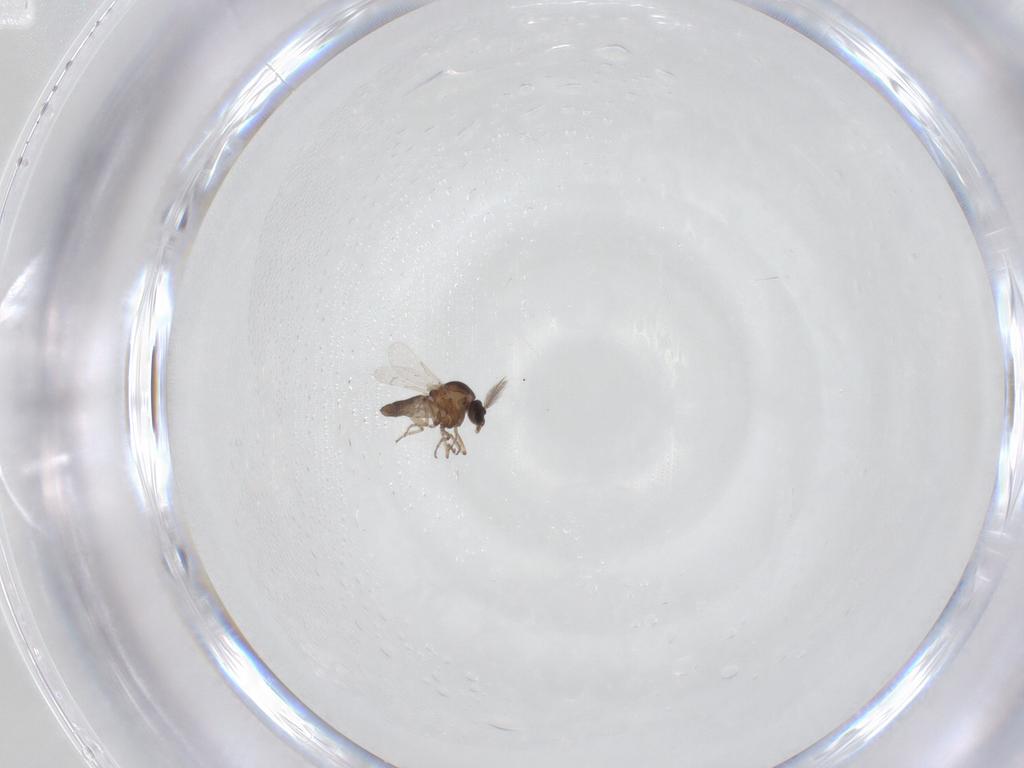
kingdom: Animalia
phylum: Arthropoda
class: Insecta
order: Diptera
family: Ceratopogonidae
